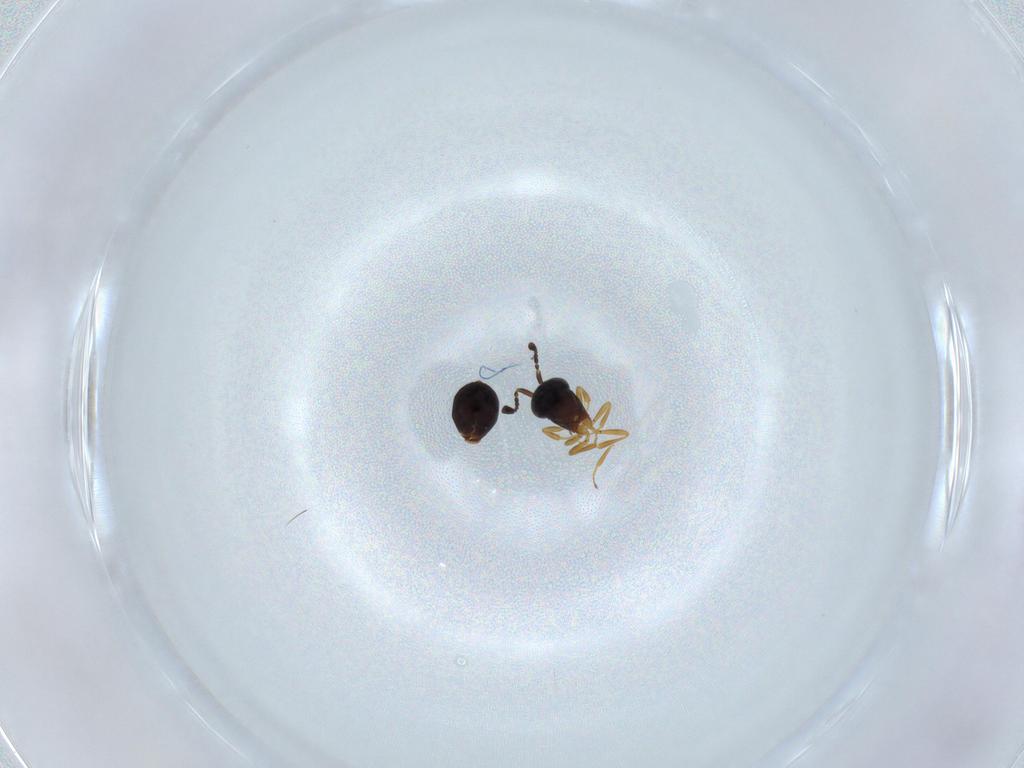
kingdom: Animalia
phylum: Arthropoda
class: Insecta
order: Hymenoptera
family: Scelionidae
